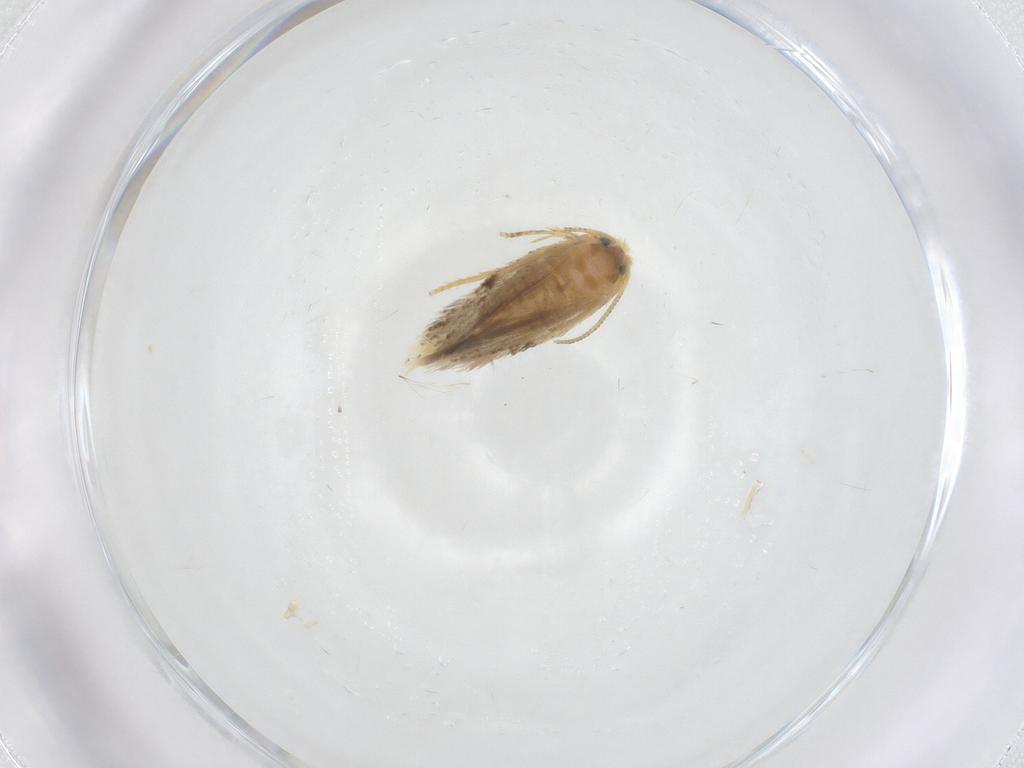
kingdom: Animalia
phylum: Arthropoda
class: Insecta
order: Lepidoptera
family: Nepticulidae
